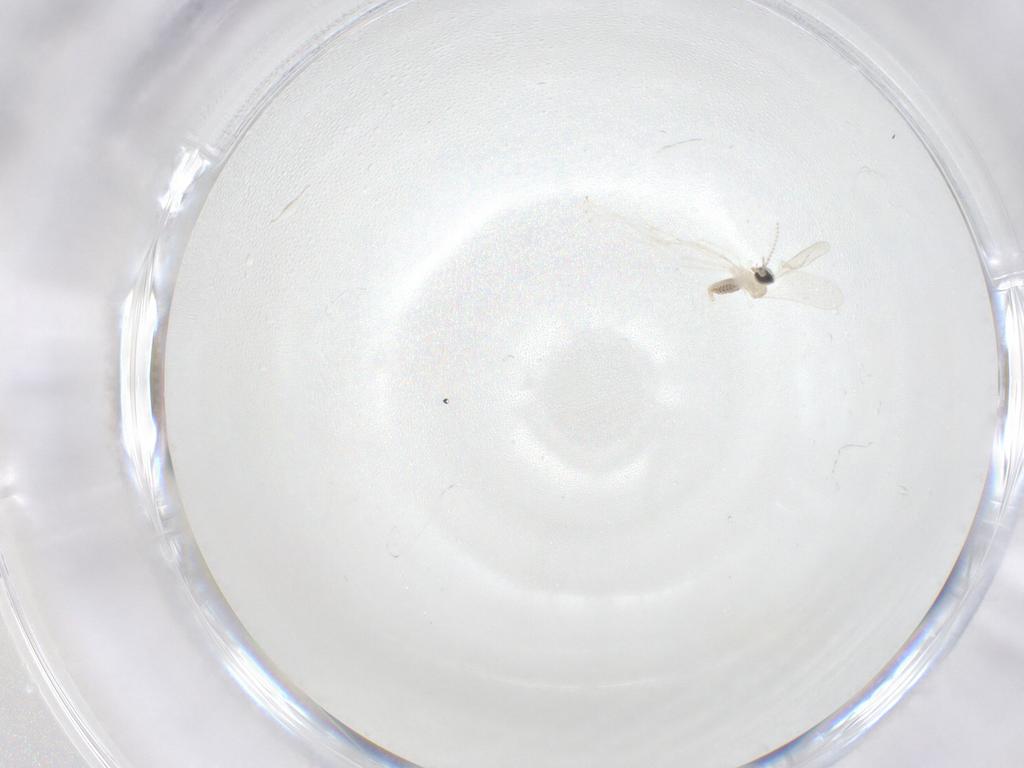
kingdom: Animalia
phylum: Arthropoda
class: Insecta
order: Diptera
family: Cecidomyiidae
